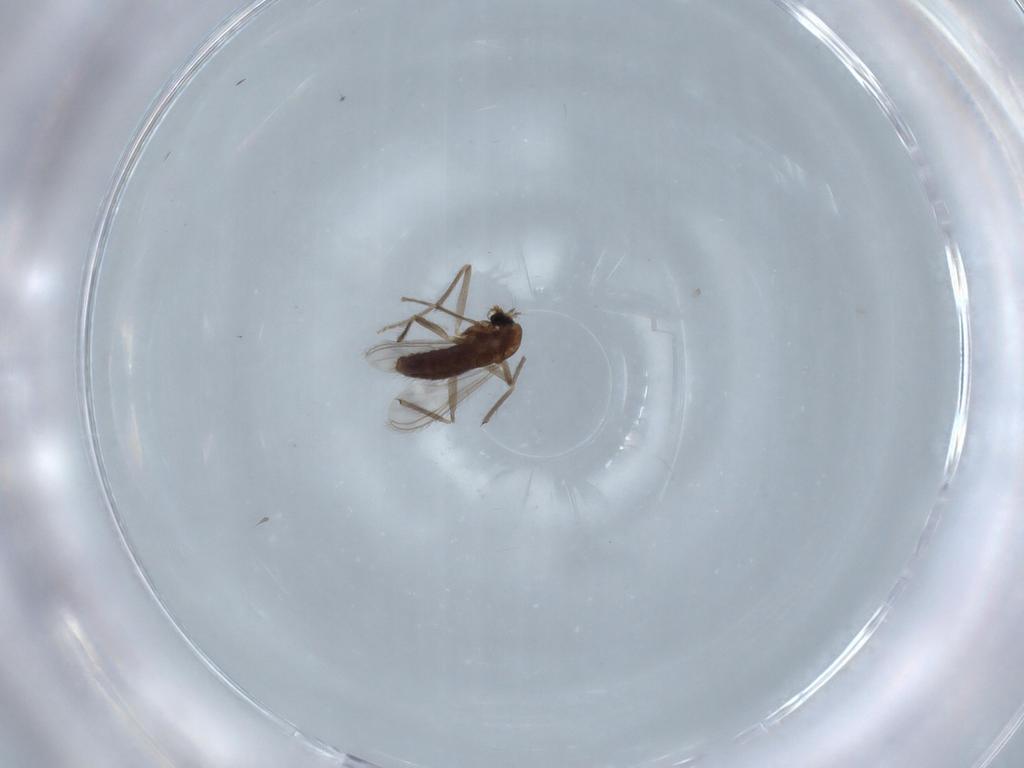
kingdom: Animalia
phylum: Arthropoda
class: Insecta
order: Diptera
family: Chironomidae
